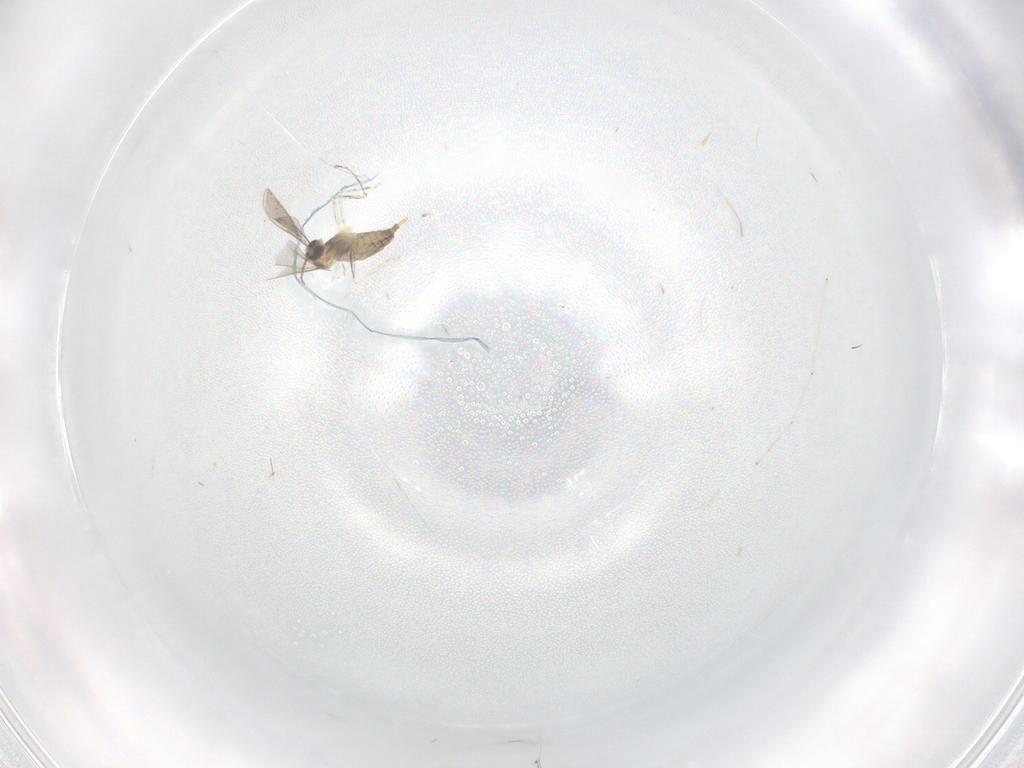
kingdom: Animalia
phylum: Arthropoda
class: Insecta
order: Diptera
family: Cecidomyiidae
